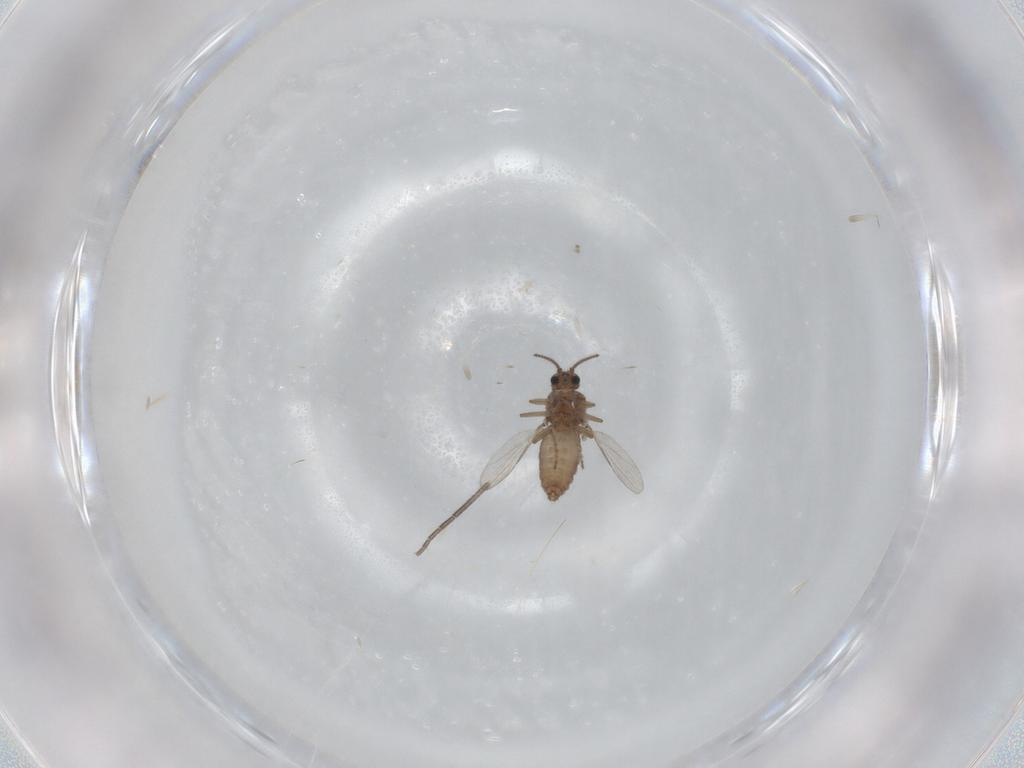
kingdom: Animalia
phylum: Arthropoda
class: Insecta
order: Diptera
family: Ceratopogonidae
